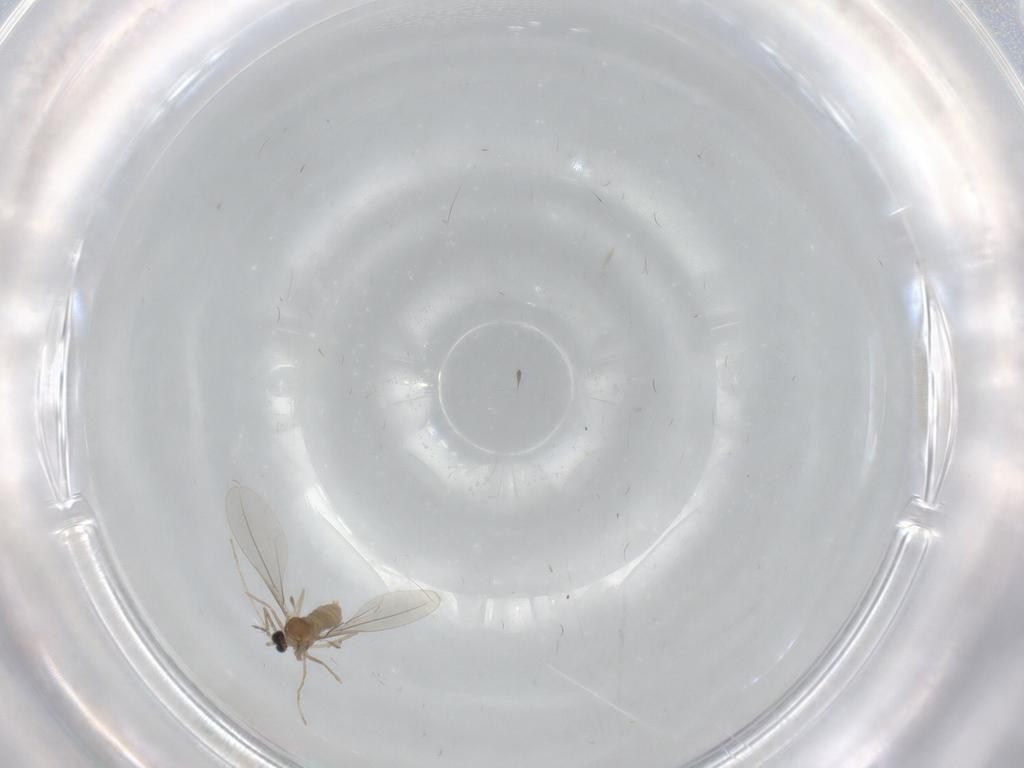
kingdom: Animalia
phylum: Arthropoda
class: Insecta
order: Diptera
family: Cecidomyiidae
